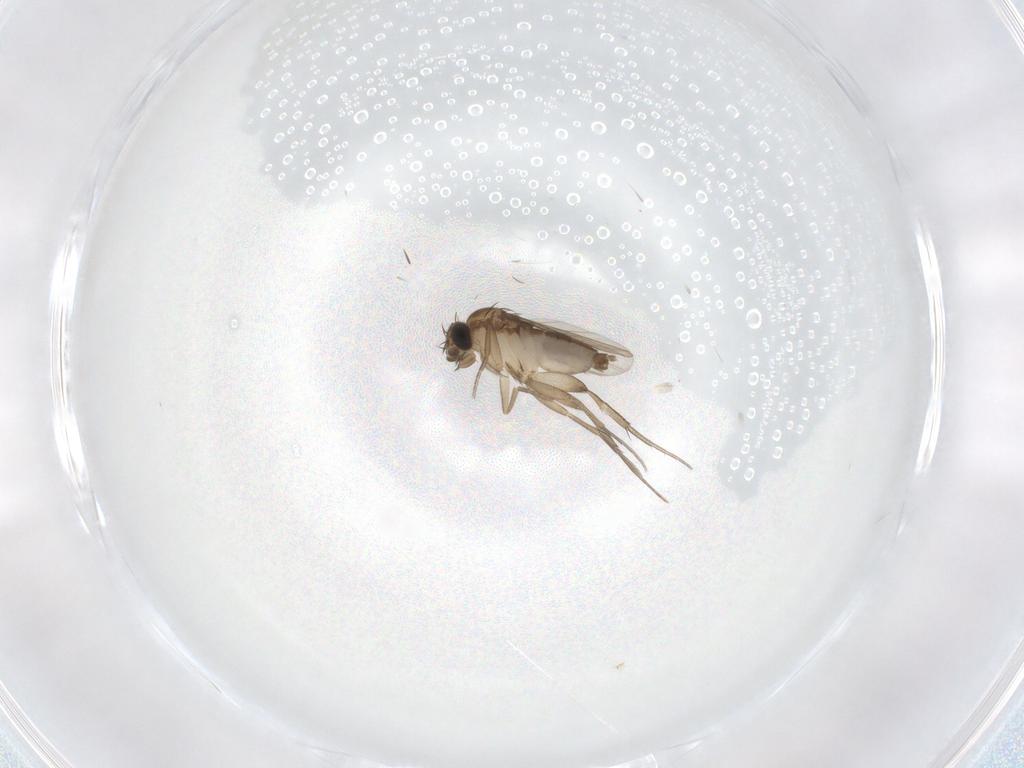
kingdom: Animalia
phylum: Arthropoda
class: Insecta
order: Diptera
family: Phoridae
